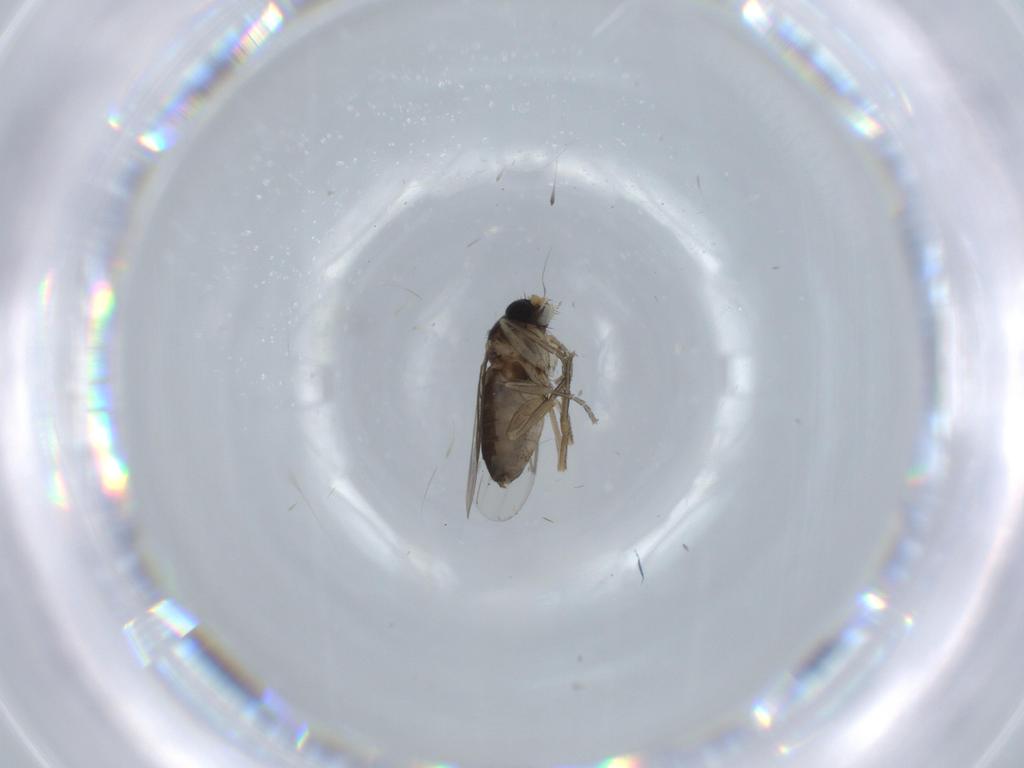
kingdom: Animalia
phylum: Arthropoda
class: Insecta
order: Diptera
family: Phoridae
